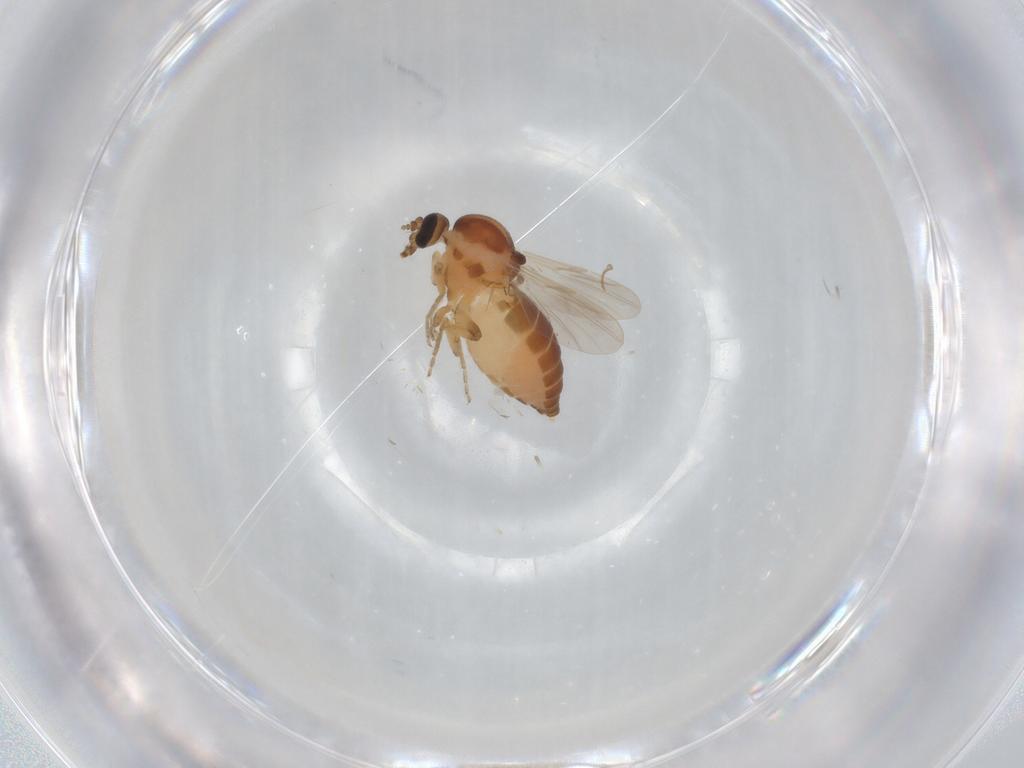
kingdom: Animalia
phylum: Arthropoda
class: Insecta
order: Diptera
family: Ceratopogonidae
